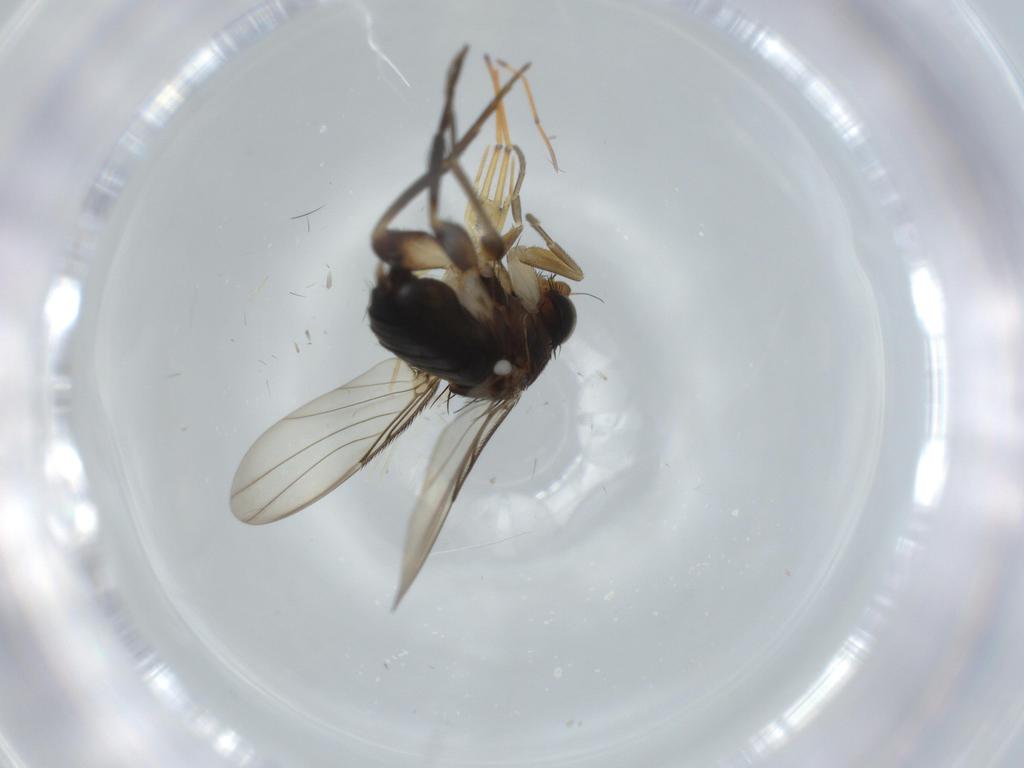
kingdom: Animalia
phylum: Arthropoda
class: Insecta
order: Diptera
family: Phoridae
